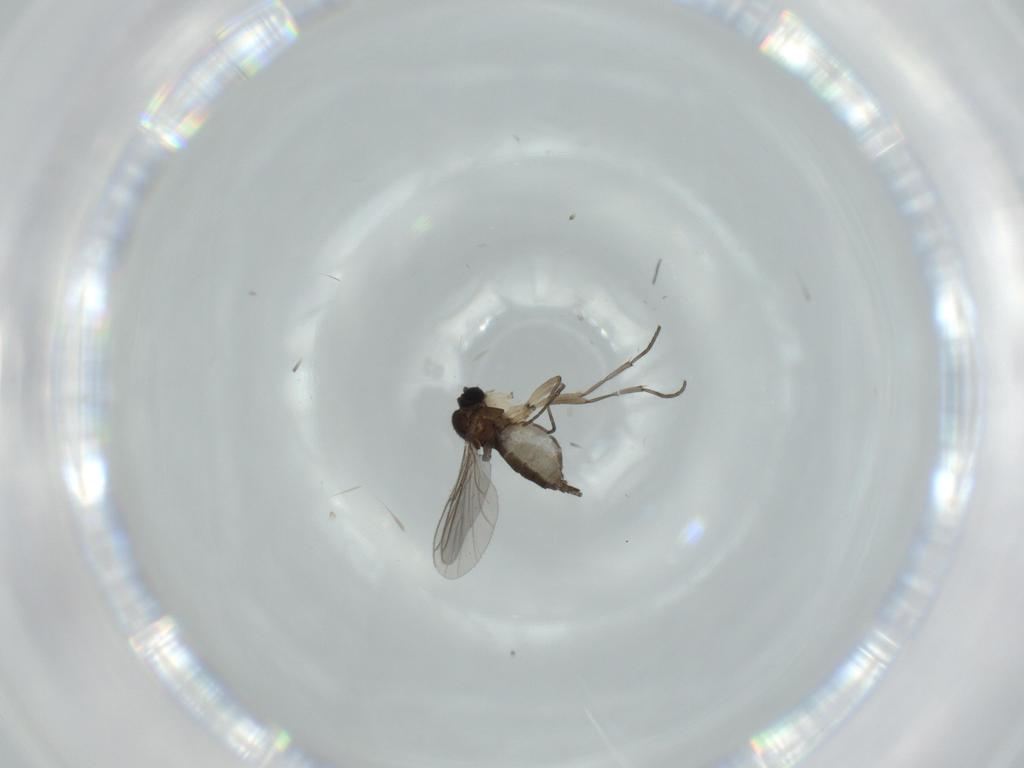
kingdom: Animalia
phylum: Arthropoda
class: Insecta
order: Diptera
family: Sciaridae
